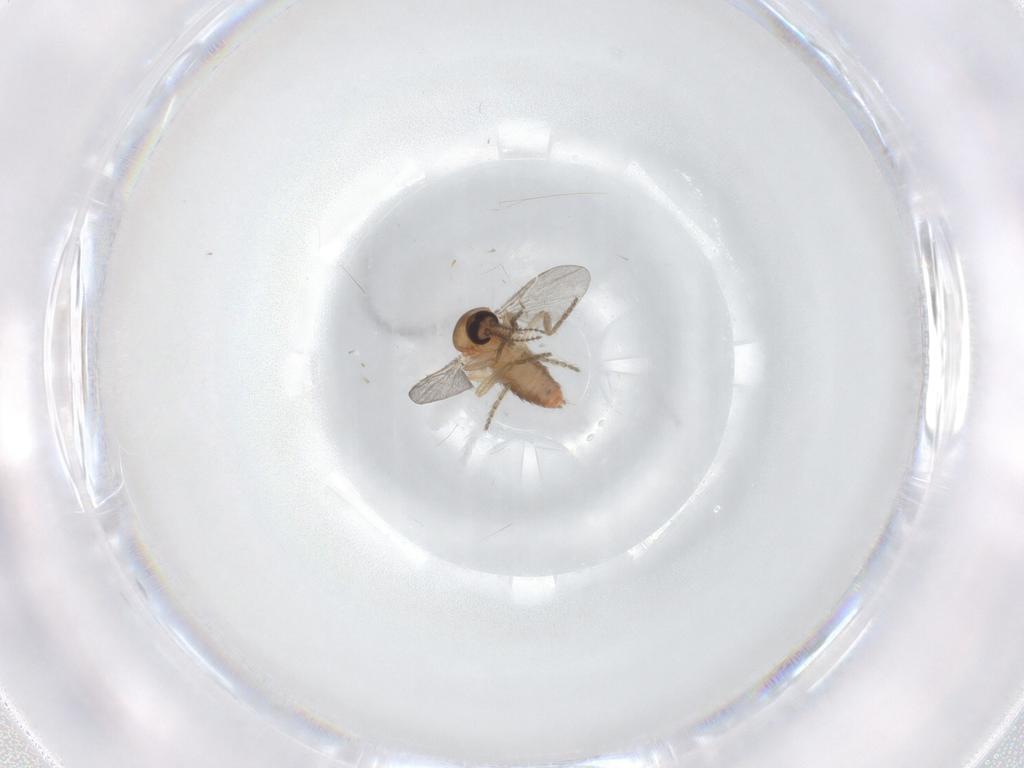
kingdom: Animalia
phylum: Arthropoda
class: Insecta
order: Diptera
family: Ceratopogonidae
